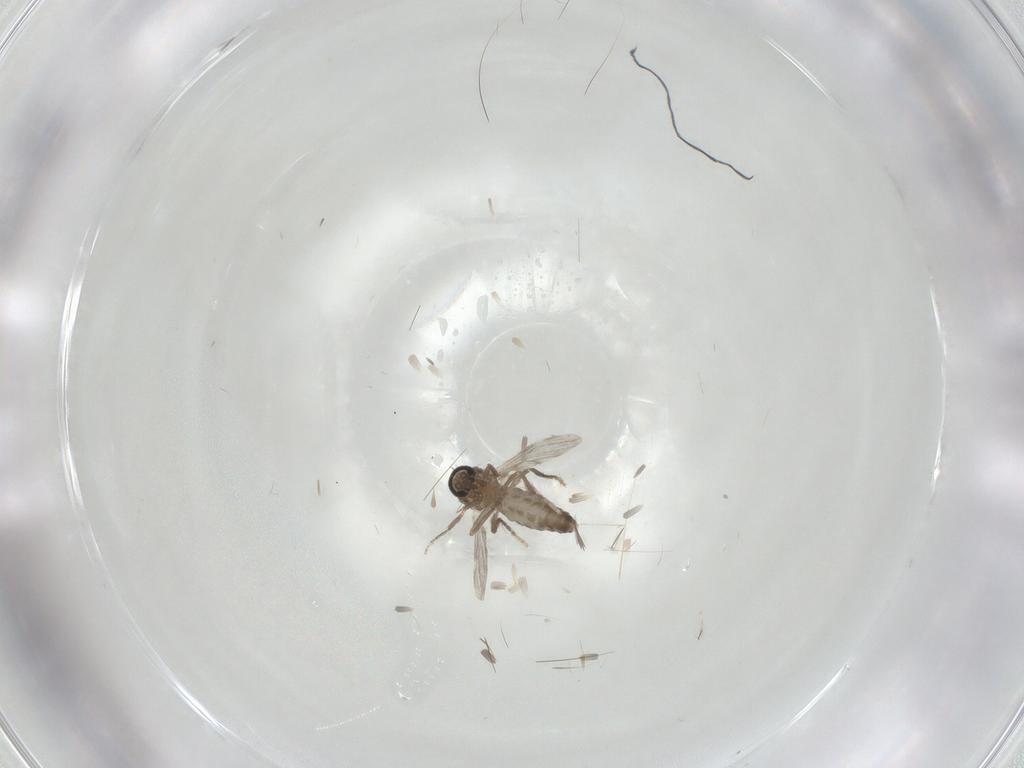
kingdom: Animalia
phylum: Arthropoda
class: Insecta
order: Diptera
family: Ceratopogonidae
